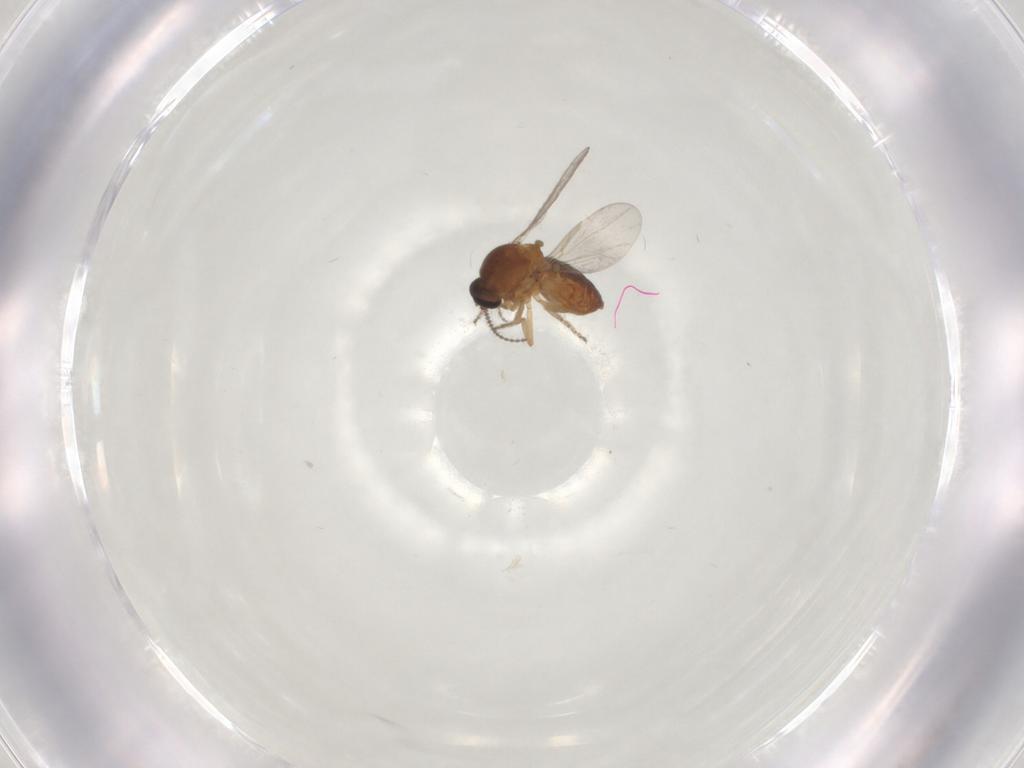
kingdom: Animalia
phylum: Arthropoda
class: Insecta
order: Diptera
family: Ceratopogonidae
